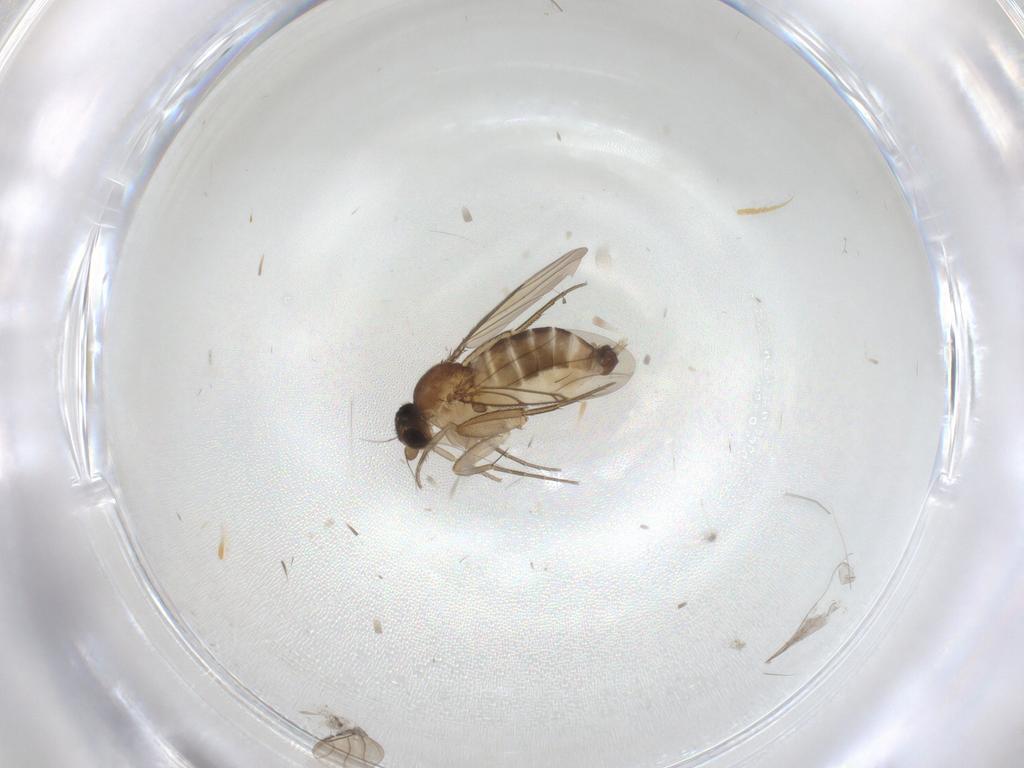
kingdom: Animalia
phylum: Arthropoda
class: Insecta
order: Diptera
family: Phoridae
